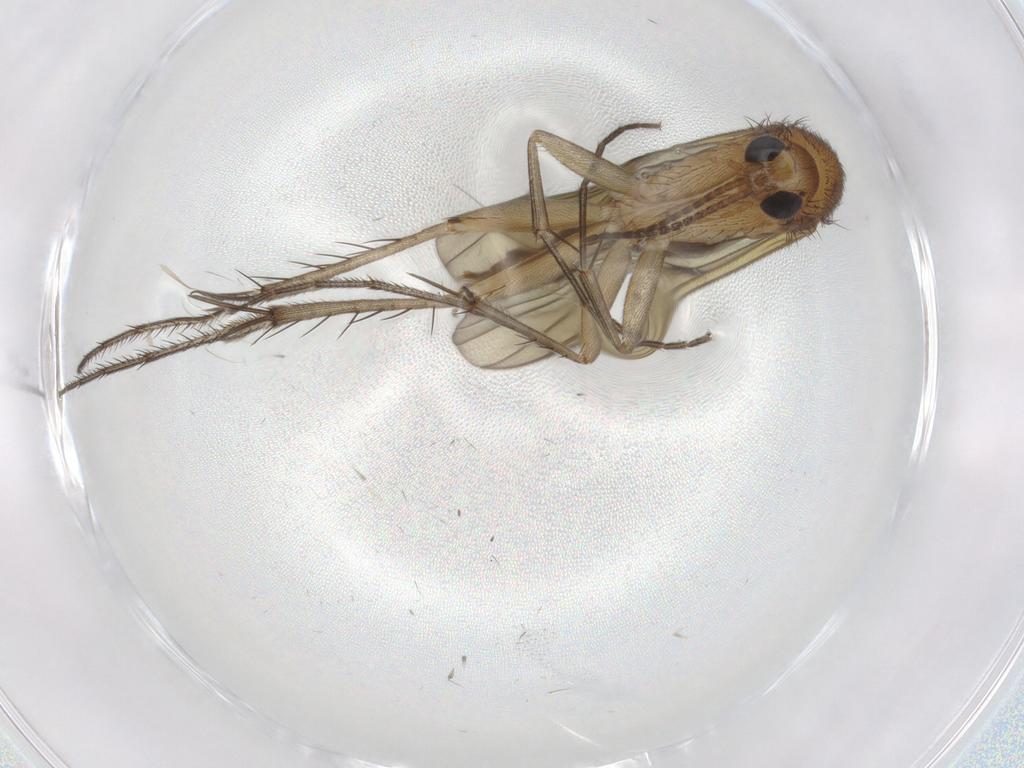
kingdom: Animalia
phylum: Arthropoda
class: Insecta
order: Diptera
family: Mycetophilidae
